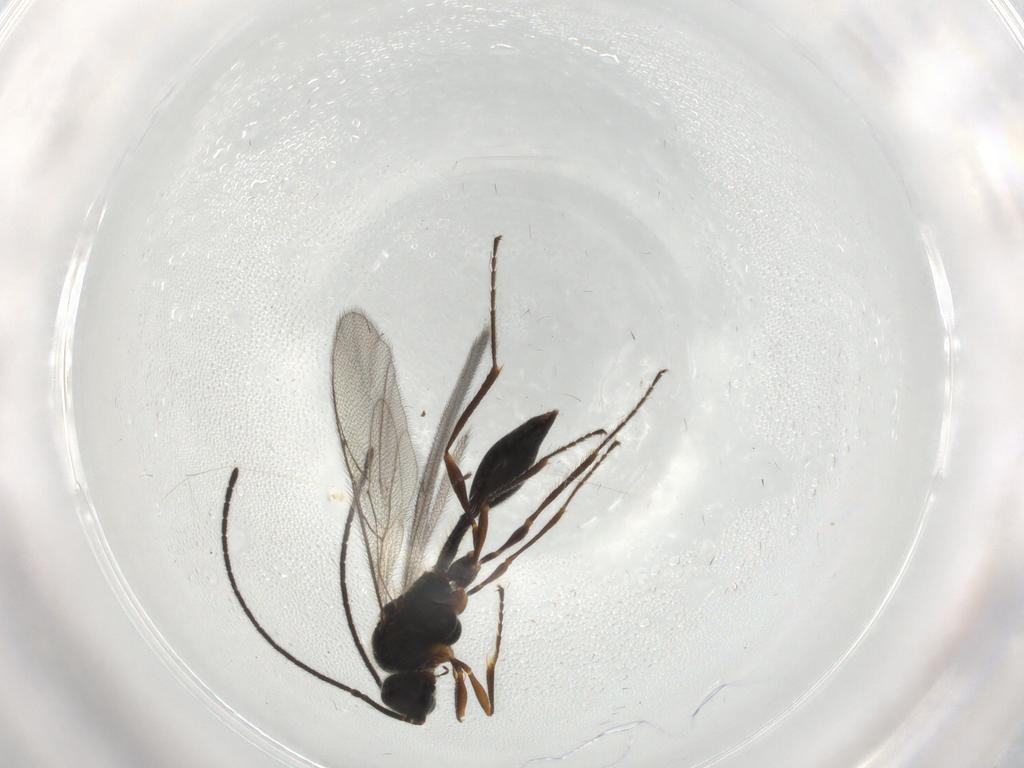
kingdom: Animalia
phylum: Arthropoda
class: Insecta
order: Hymenoptera
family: Diapriidae
